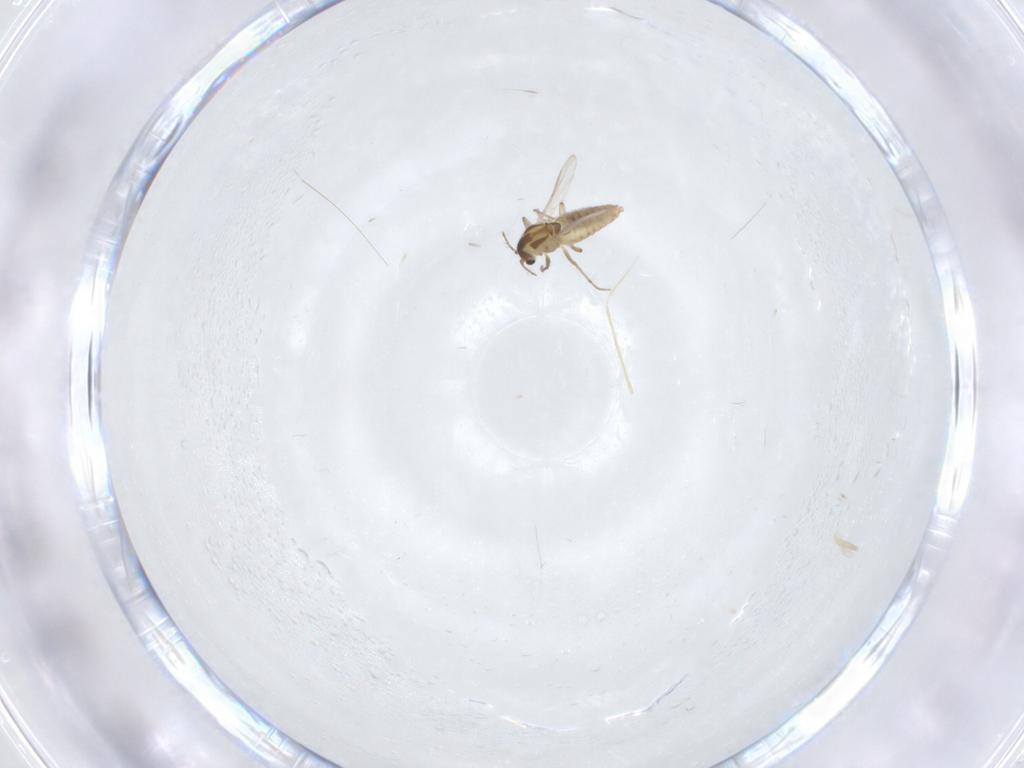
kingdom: Animalia
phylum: Arthropoda
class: Insecta
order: Diptera
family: Chironomidae
